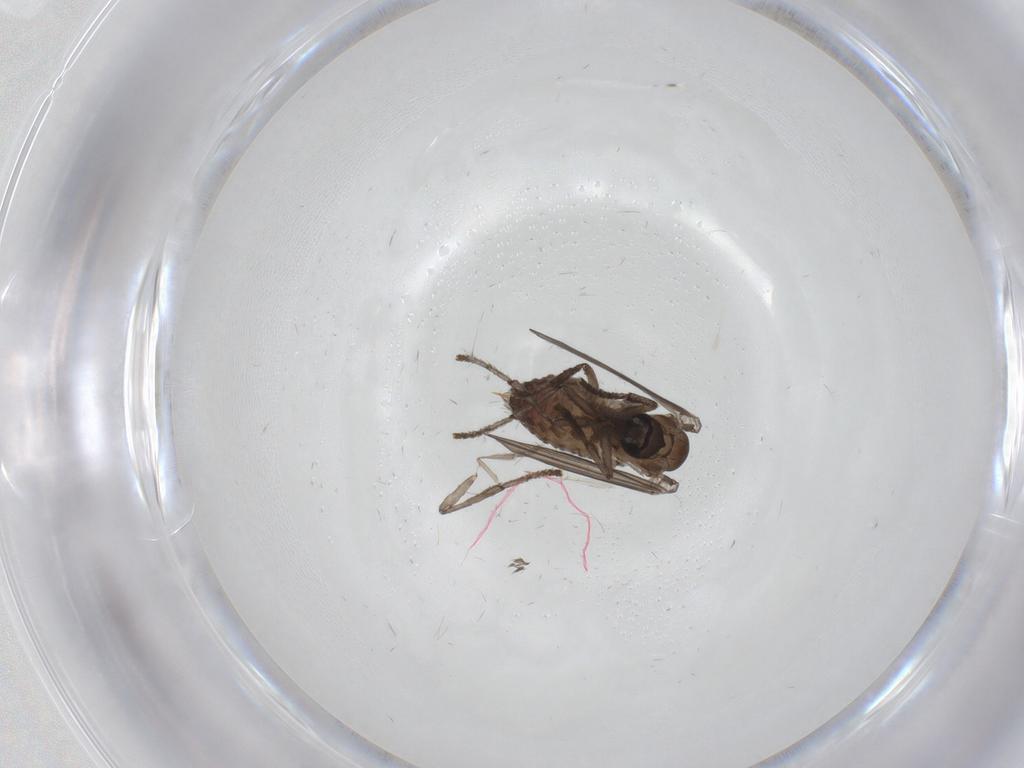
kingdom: Animalia
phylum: Arthropoda
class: Insecta
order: Diptera
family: Psychodidae
